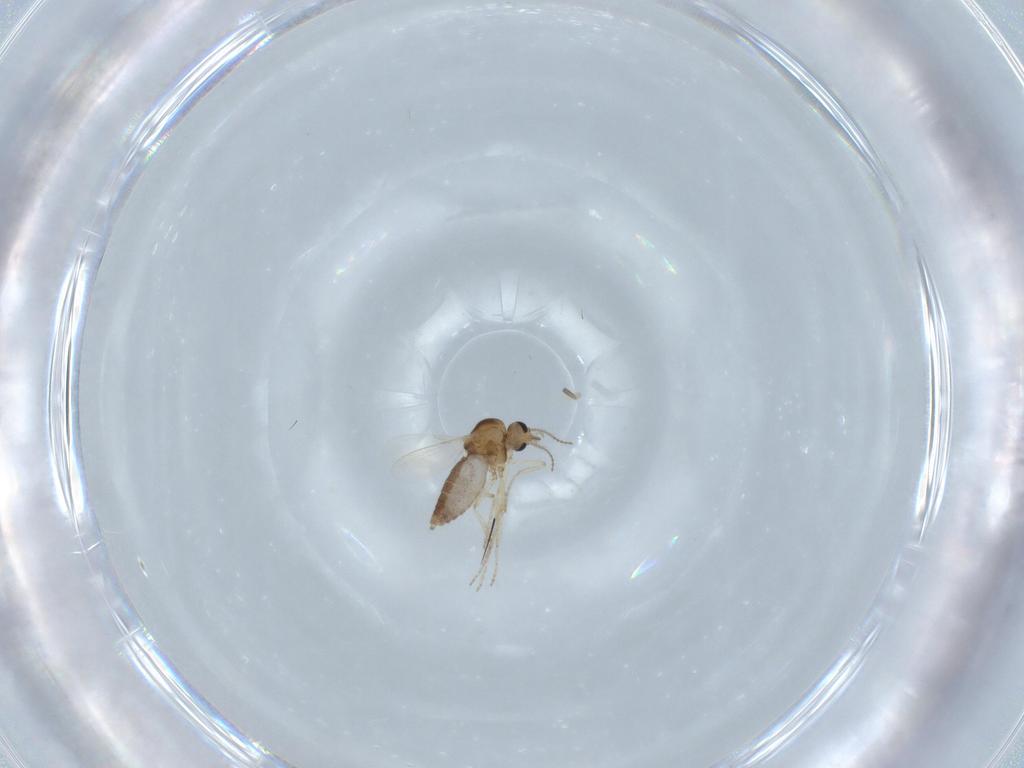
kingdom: Animalia
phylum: Arthropoda
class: Insecta
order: Diptera
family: Ceratopogonidae
